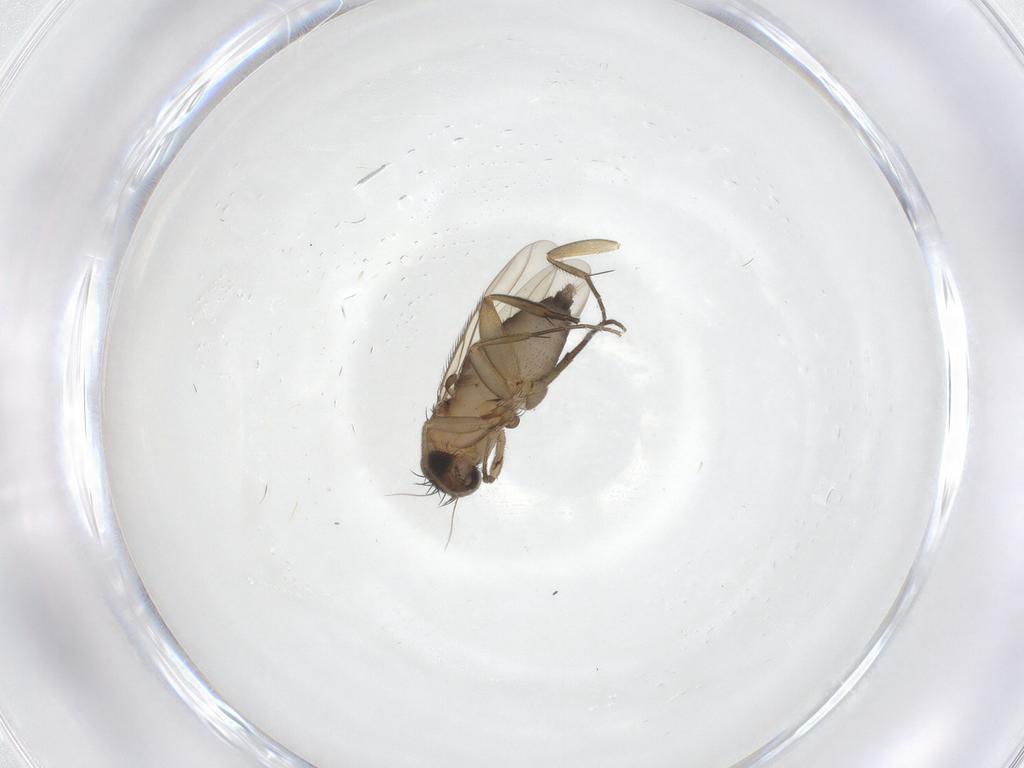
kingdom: Animalia
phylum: Arthropoda
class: Insecta
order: Diptera
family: Phoridae
